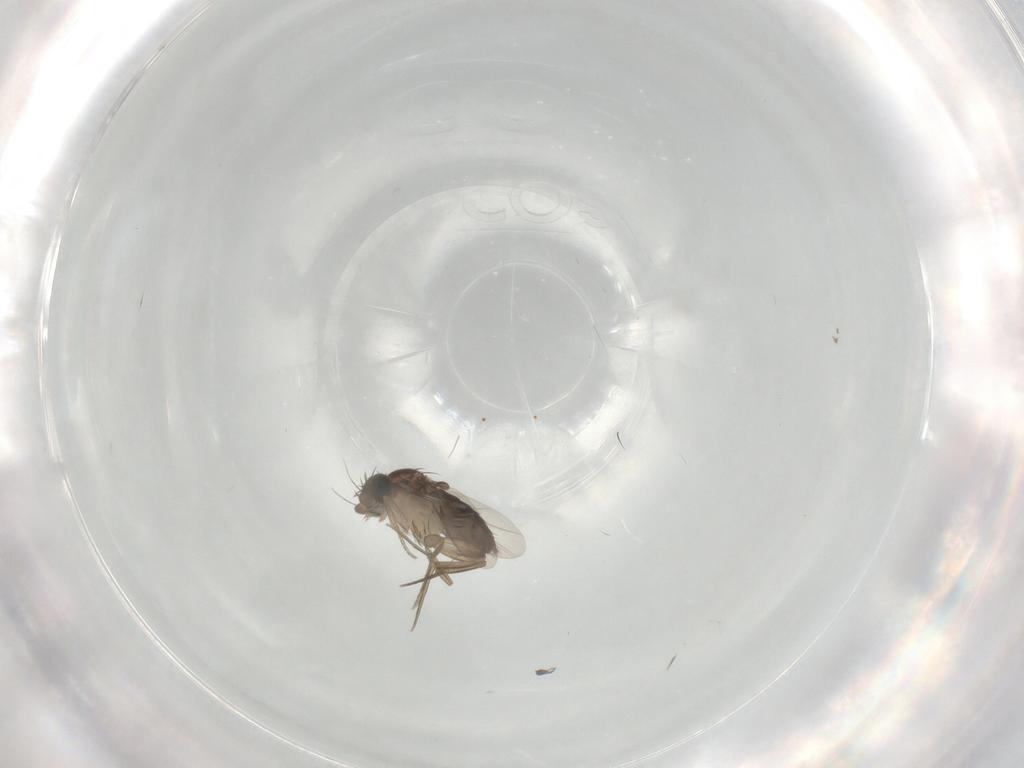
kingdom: Animalia
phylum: Arthropoda
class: Insecta
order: Diptera
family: Phoridae
